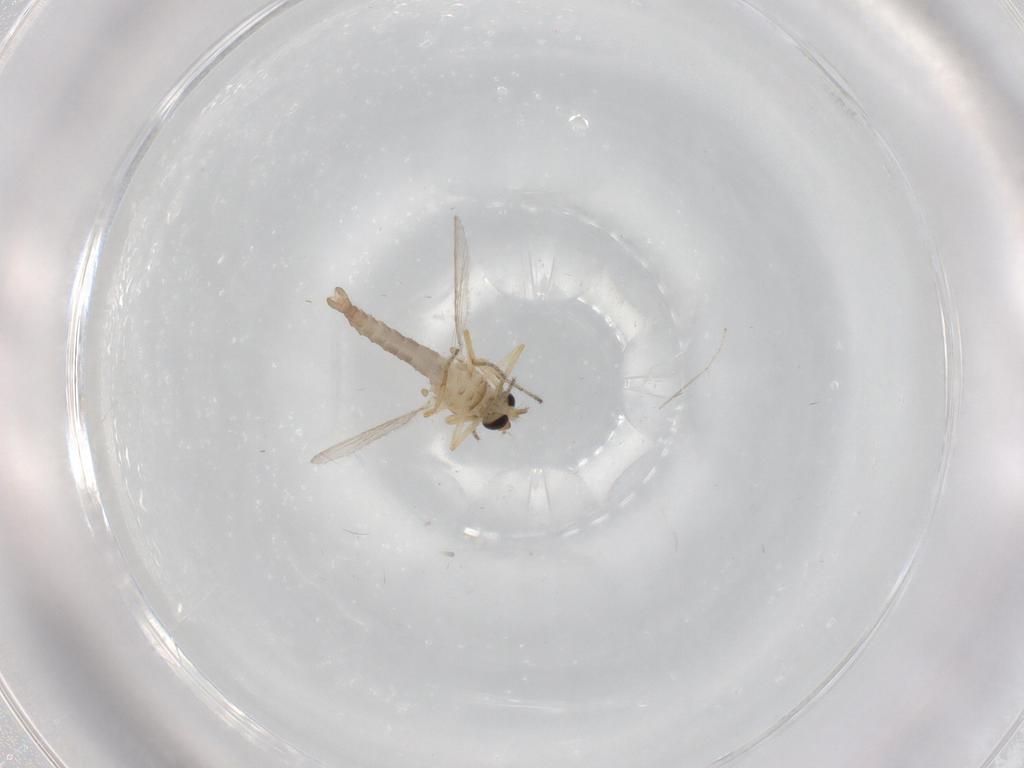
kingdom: Animalia
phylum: Arthropoda
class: Insecta
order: Diptera
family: Ceratopogonidae
